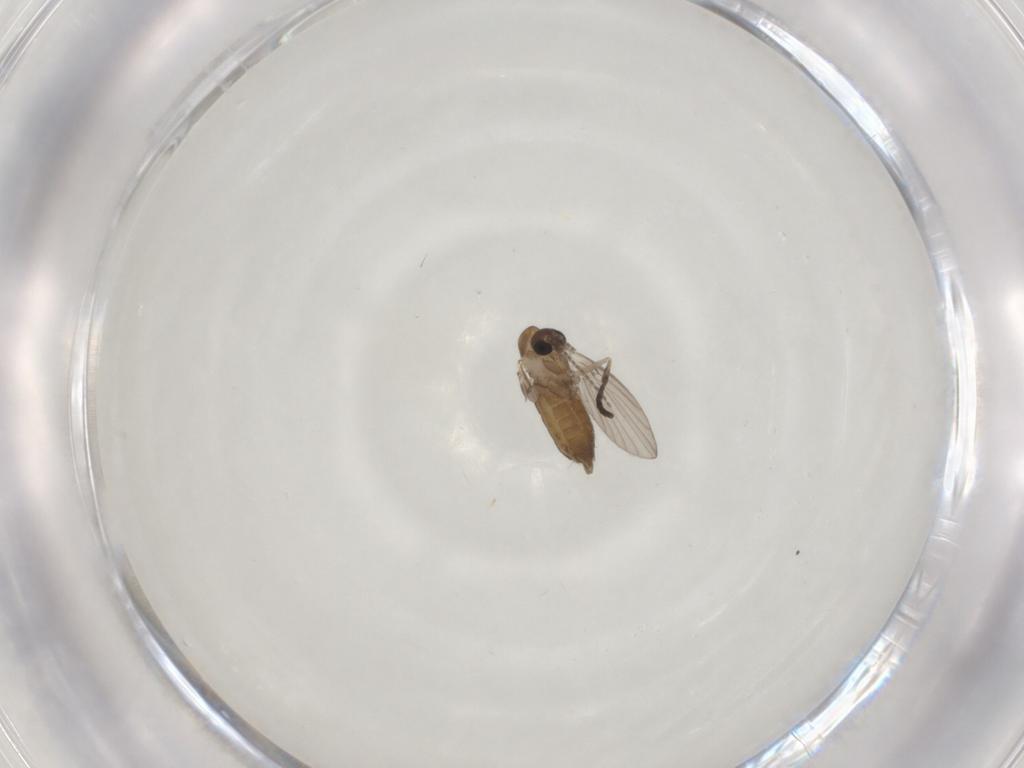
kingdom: Animalia
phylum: Arthropoda
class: Insecta
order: Diptera
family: Psychodidae
